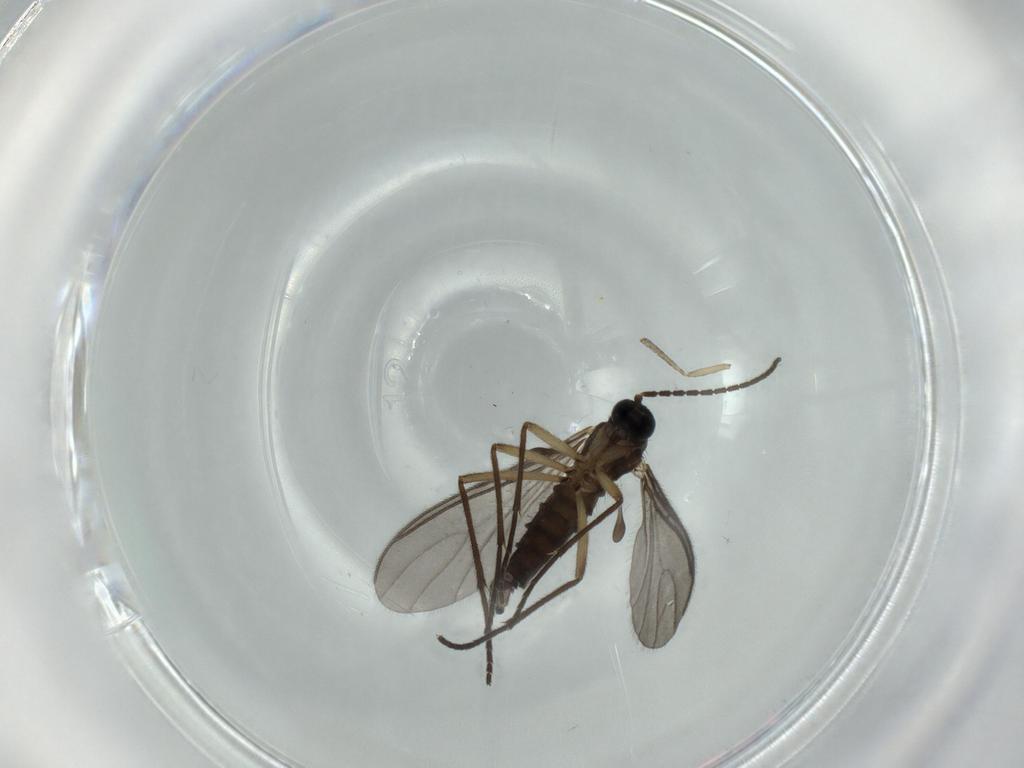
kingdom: Animalia
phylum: Arthropoda
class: Insecta
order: Diptera
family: Sciaridae
